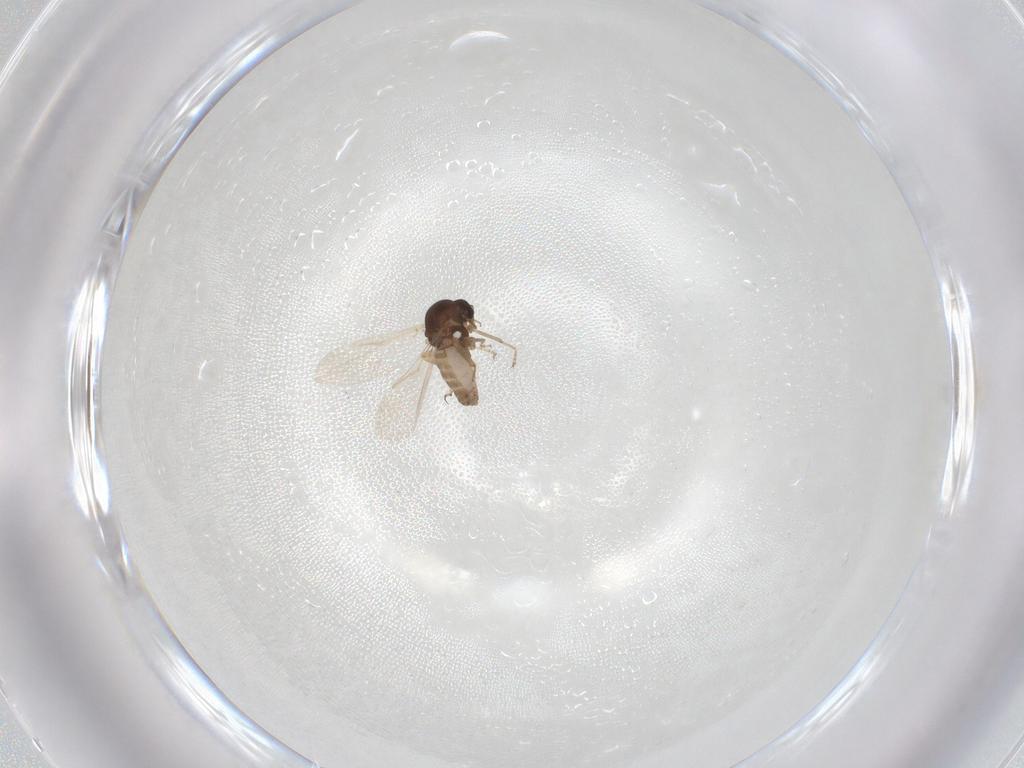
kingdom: Animalia
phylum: Arthropoda
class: Insecta
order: Diptera
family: Ceratopogonidae
